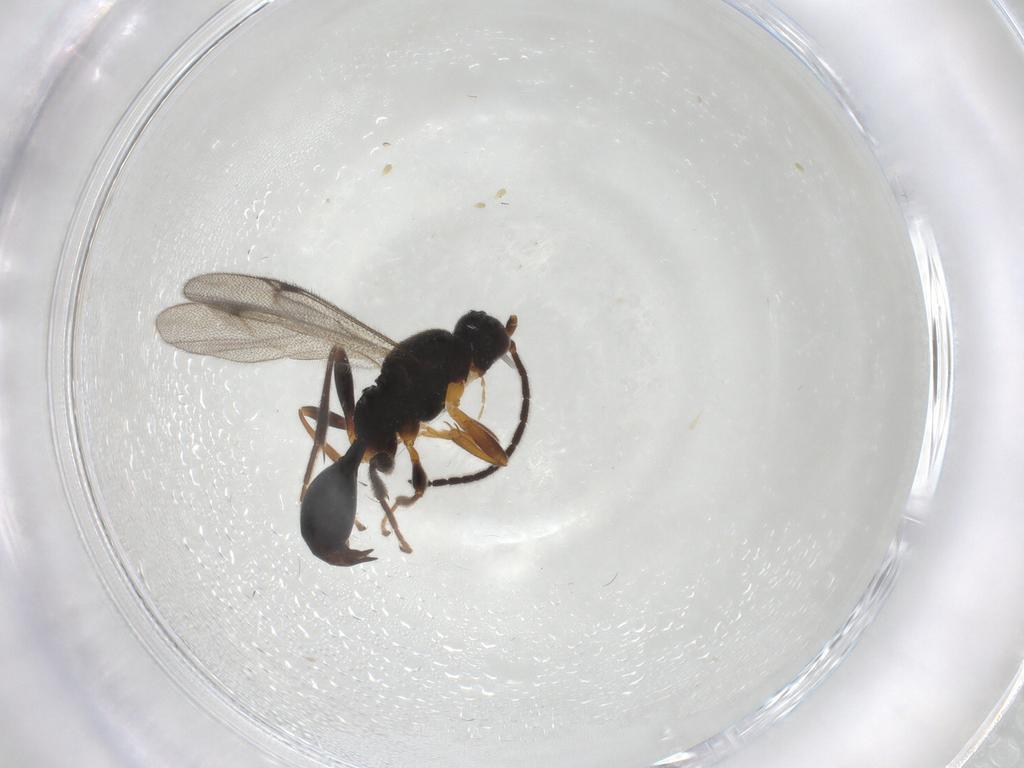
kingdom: Animalia
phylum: Arthropoda
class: Insecta
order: Hymenoptera
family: Proctotrupidae
